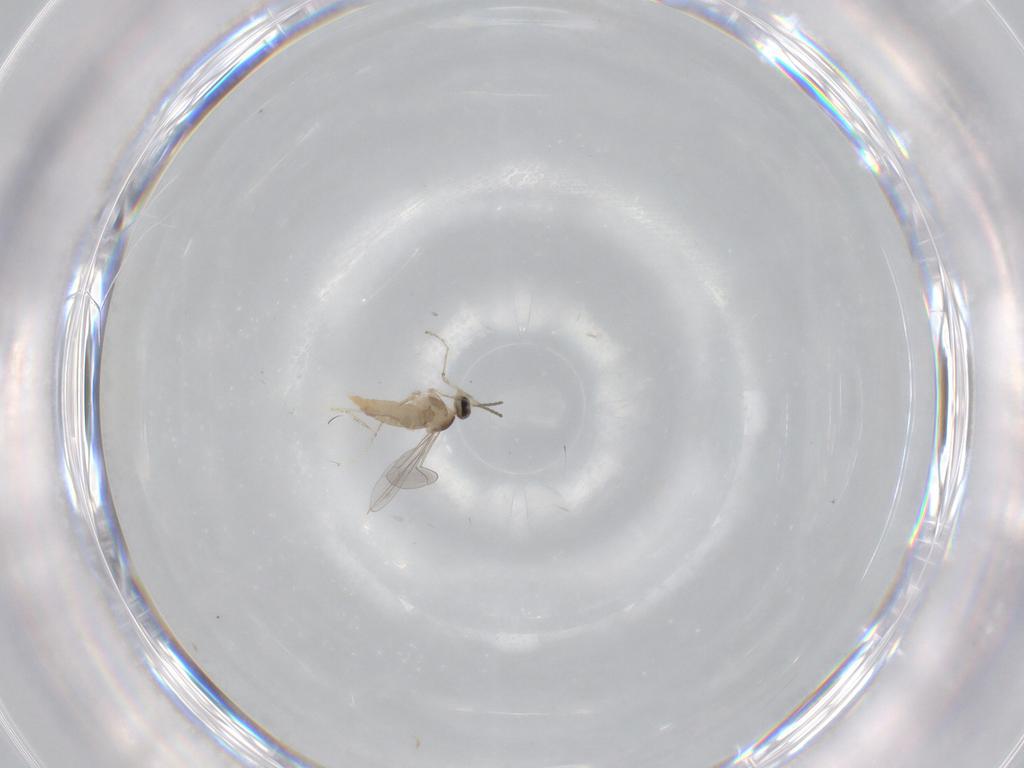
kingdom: Animalia
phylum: Arthropoda
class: Insecta
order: Diptera
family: Cecidomyiidae
